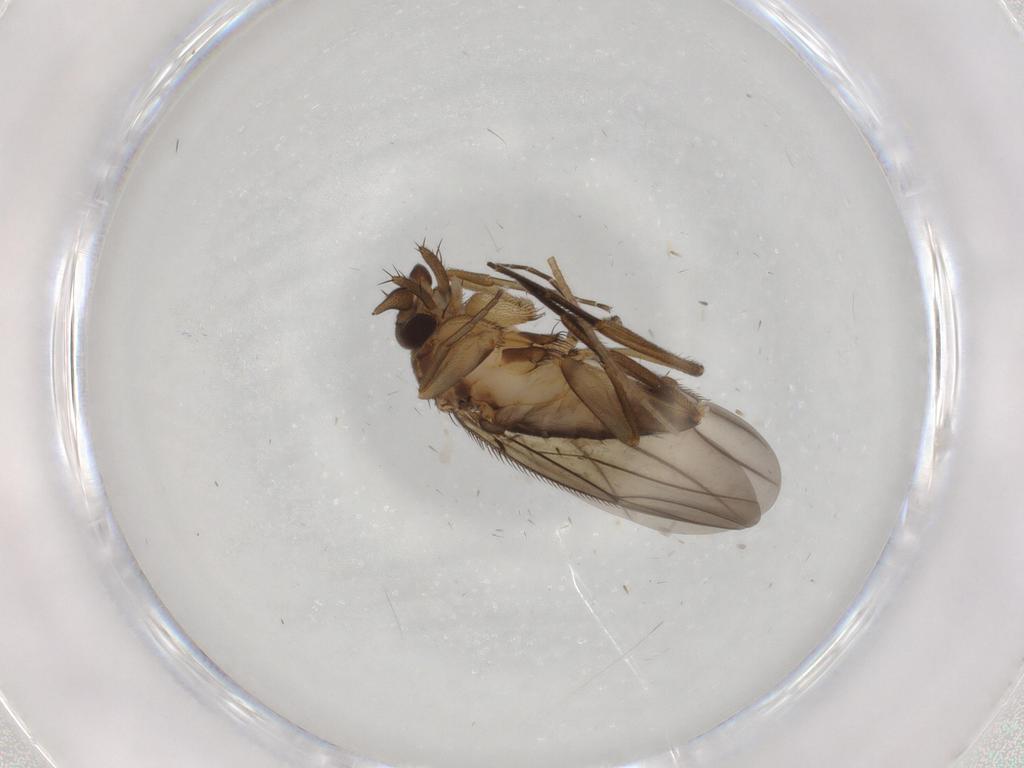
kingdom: Animalia
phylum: Arthropoda
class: Insecta
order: Diptera
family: Phoridae
